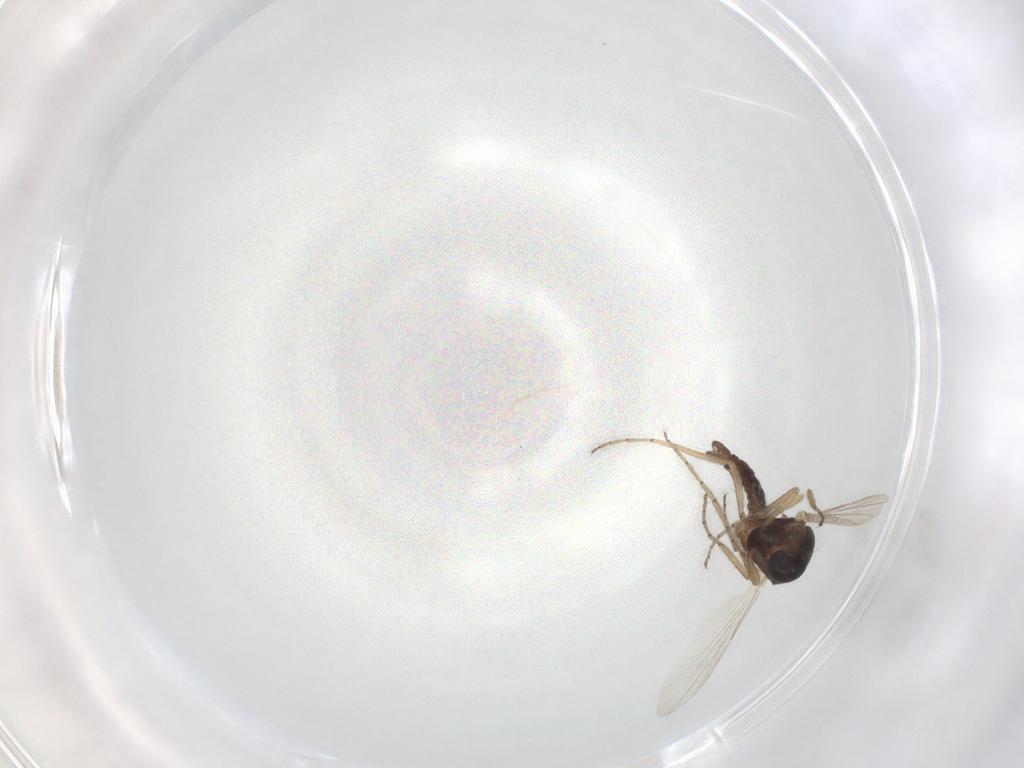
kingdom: Animalia
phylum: Arthropoda
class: Insecta
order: Diptera
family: Ceratopogonidae
